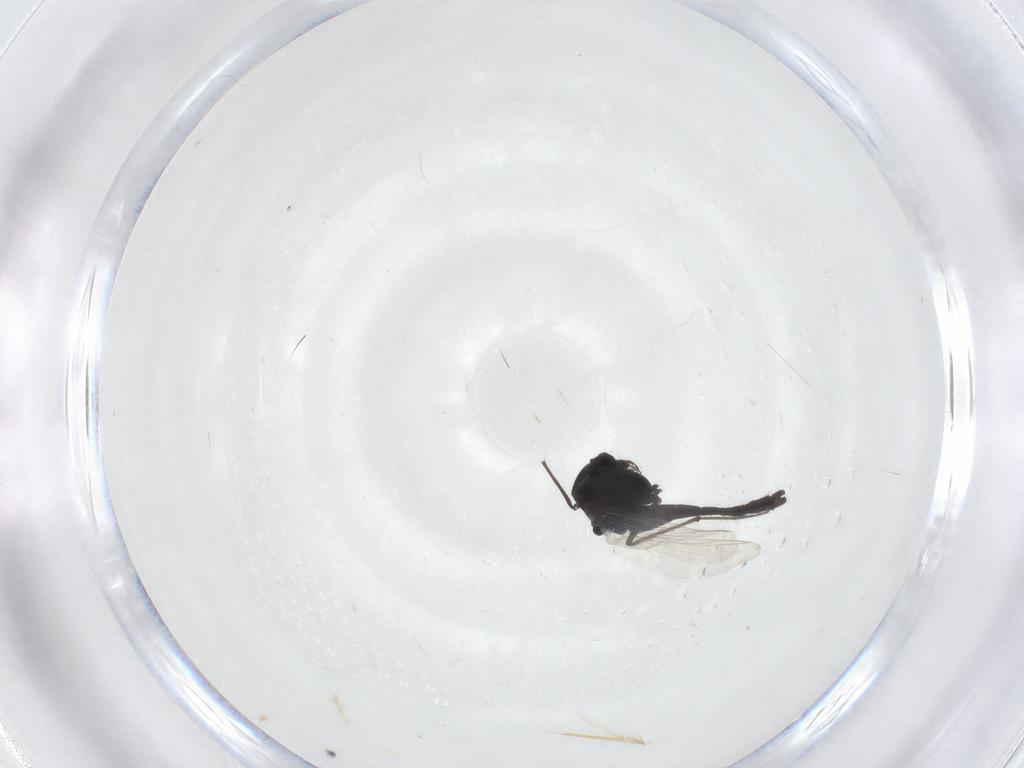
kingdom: Animalia
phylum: Arthropoda
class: Insecta
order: Diptera
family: Chironomidae
